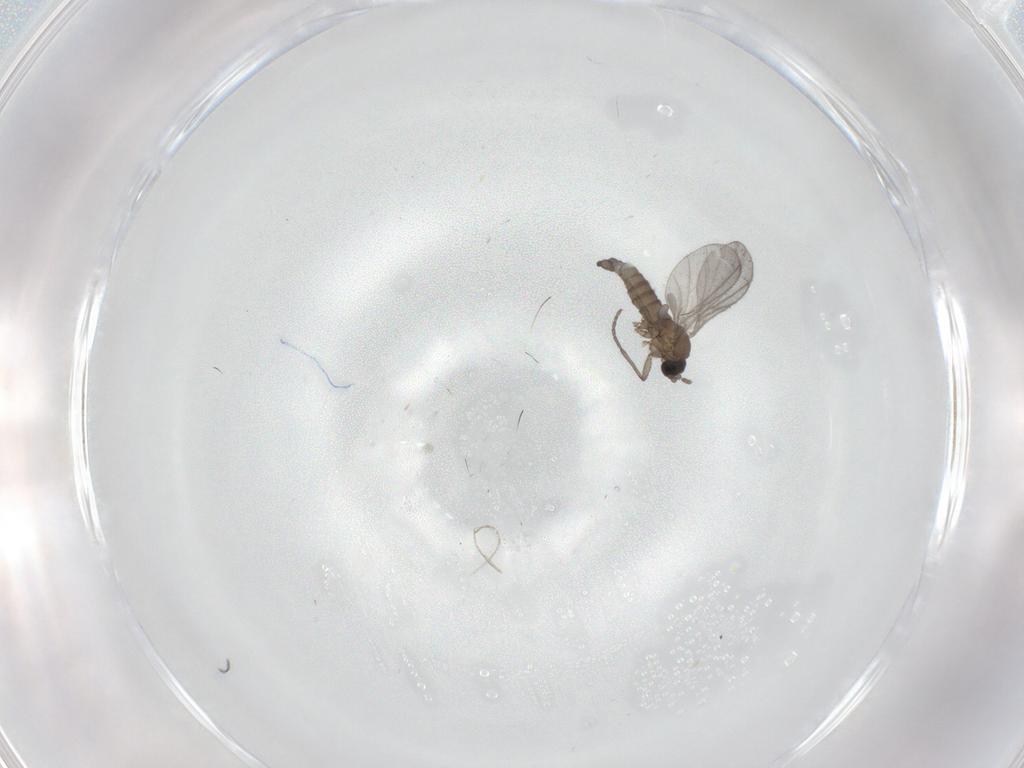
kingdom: Animalia
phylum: Arthropoda
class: Insecta
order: Diptera
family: Sciaridae
